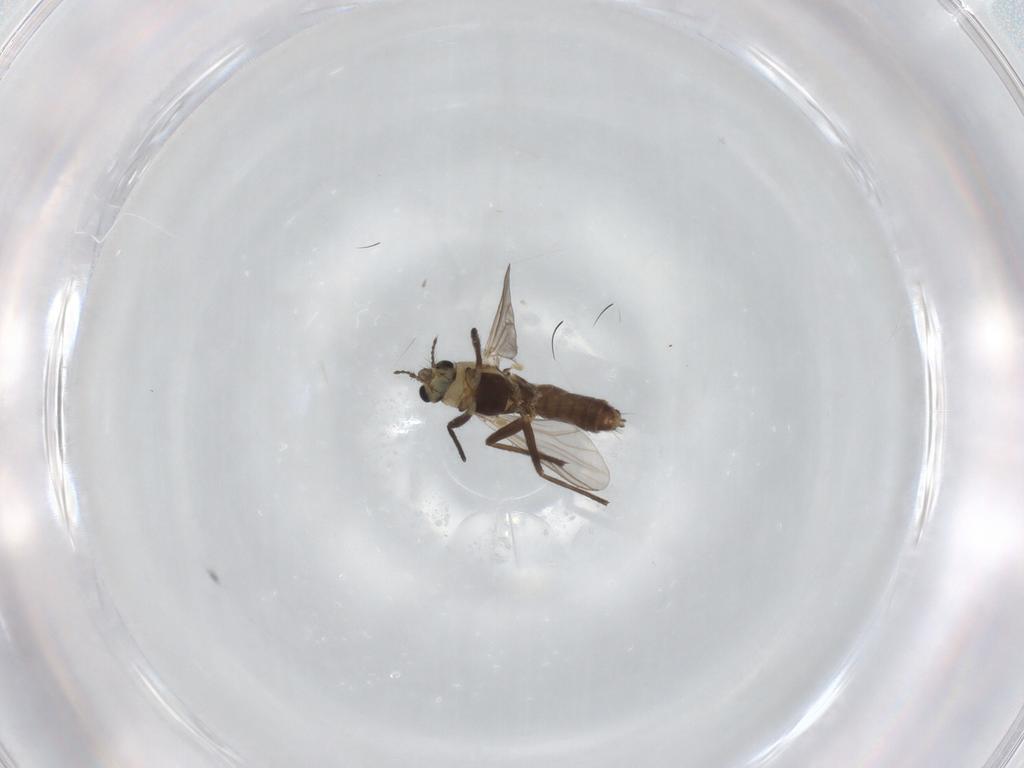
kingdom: Animalia
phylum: Arthropoda
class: Insecta
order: Diptera
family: Chironomidae
